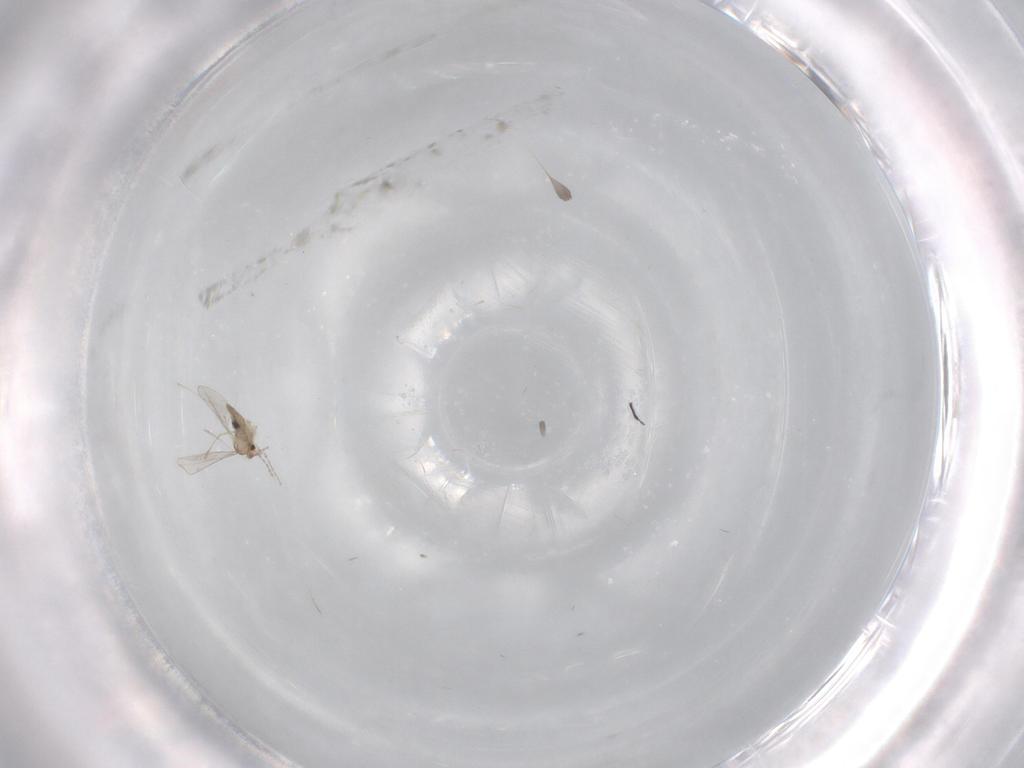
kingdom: Animalia
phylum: Arthropoda
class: Insecta
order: Diptera
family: Cecidomyiidae
